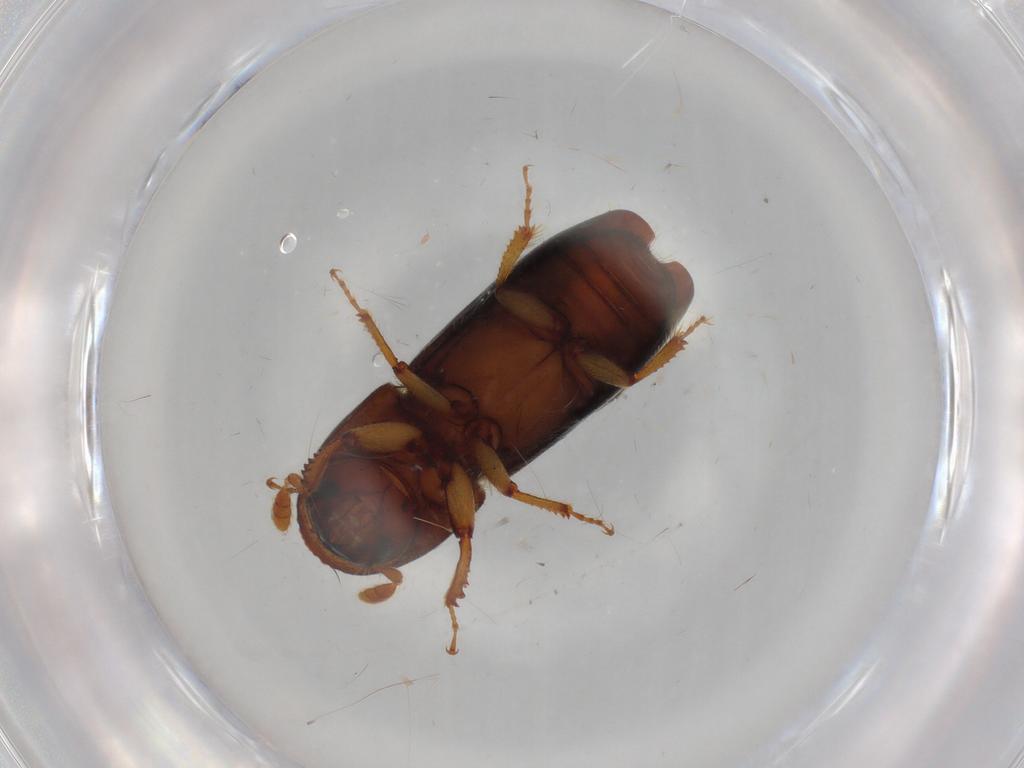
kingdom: Animalia
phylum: Arthropoda
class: Insecta
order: Coleoptera
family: Curculionidae
